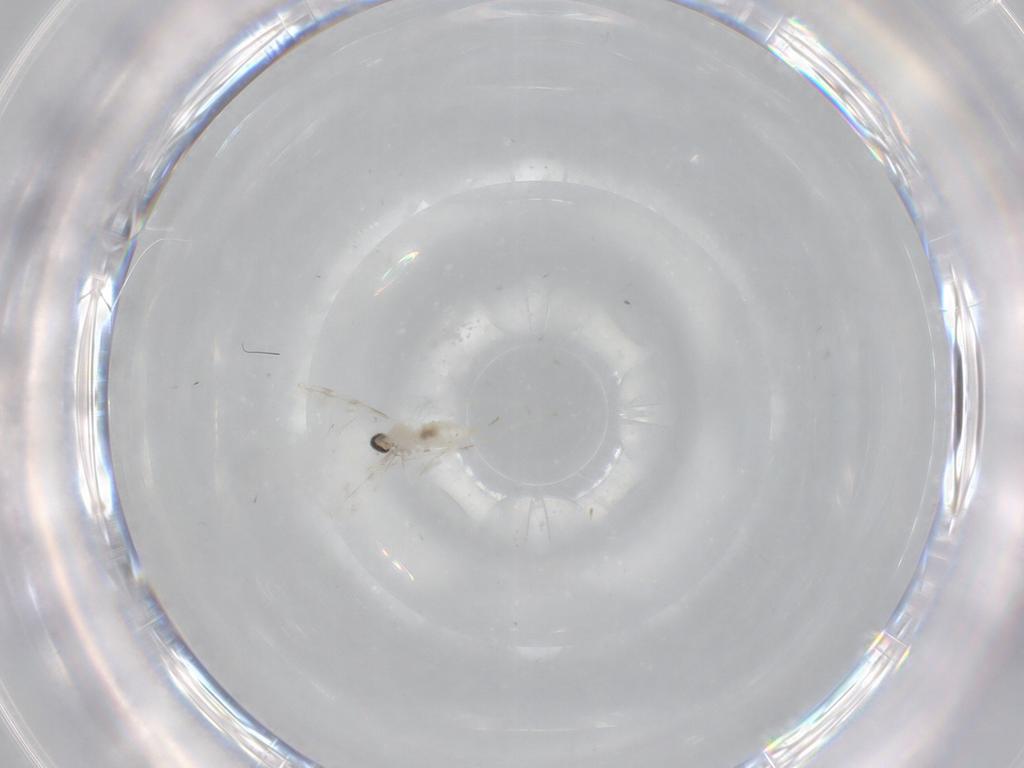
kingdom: Animalia
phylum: Arthropoda
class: Insecta
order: Diptera
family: Cecidomyiidae
